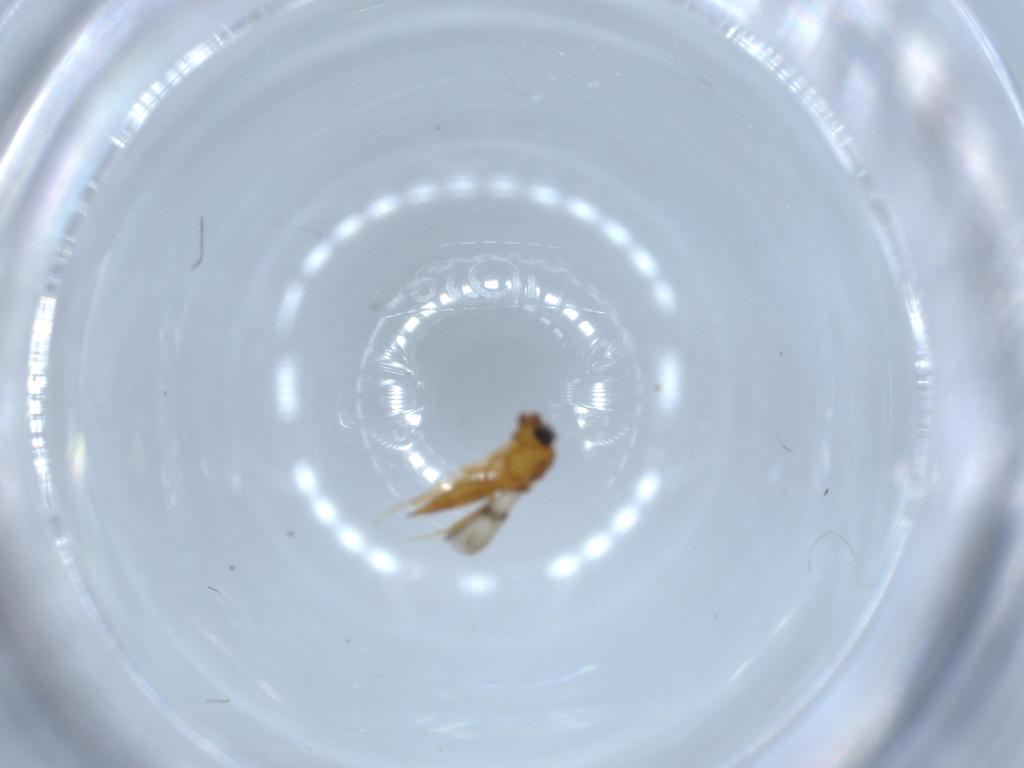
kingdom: Animalia
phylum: Arthropoda
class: Insecta
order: Hymenoptera
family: Scelionidae
